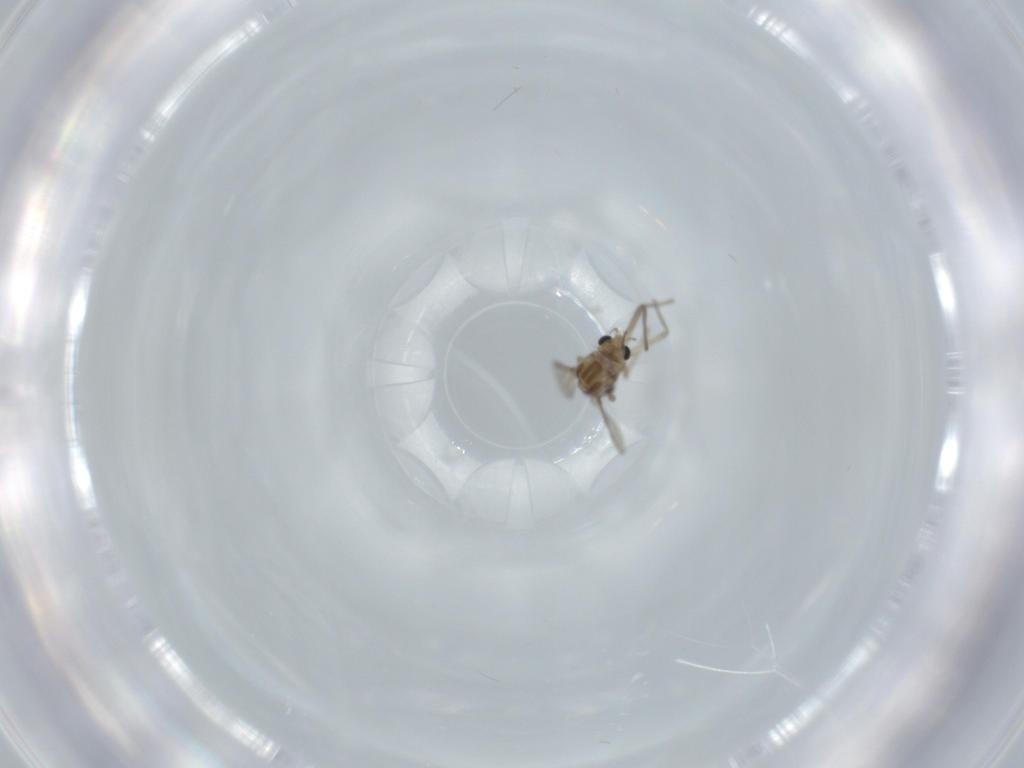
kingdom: Animalia
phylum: Arthropoda
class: Insecta
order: Diptera
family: Chironomidae
